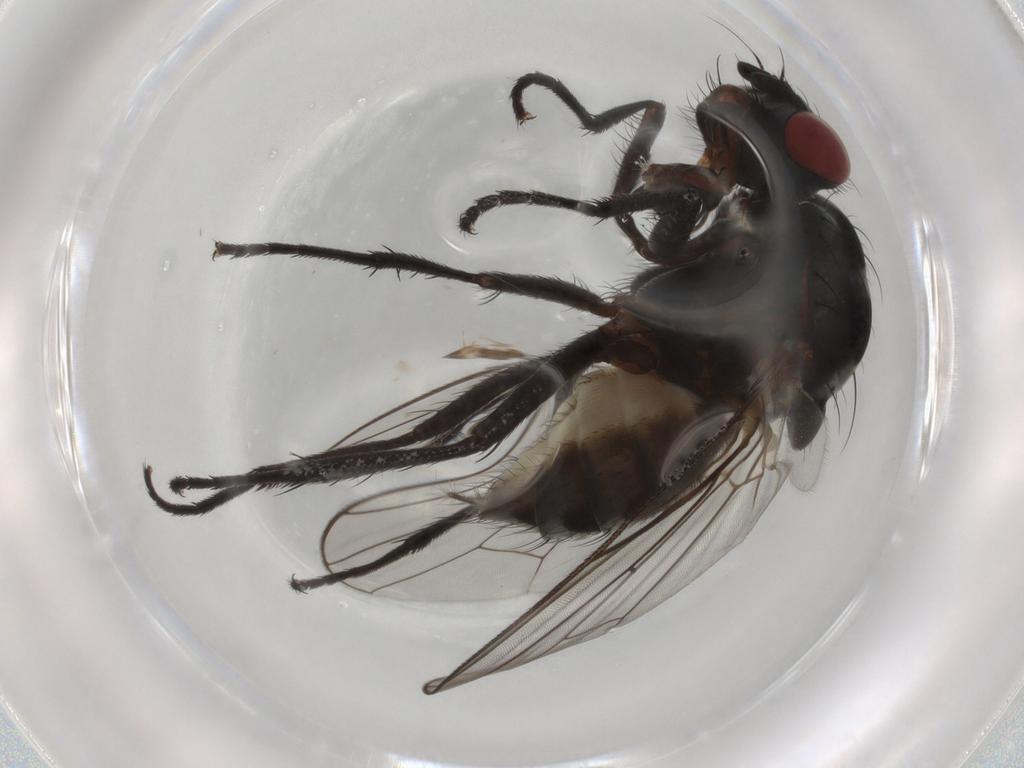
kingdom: Animalia
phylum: Arthropoda
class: Insecta
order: Diptera
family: Anthomyiidae
